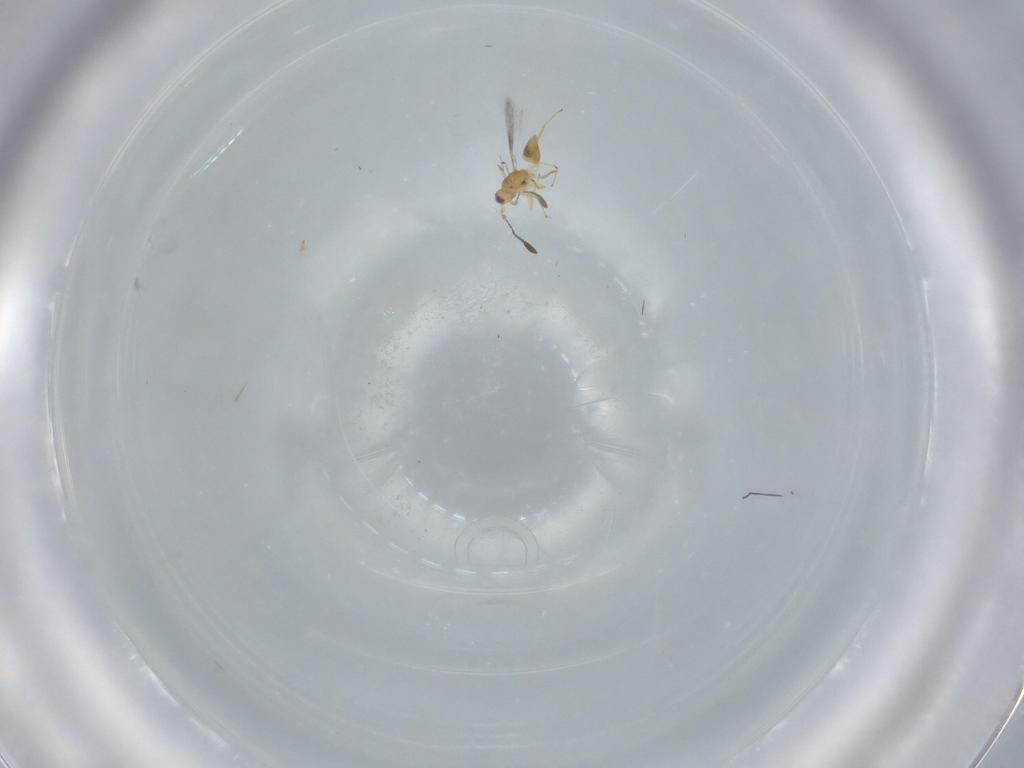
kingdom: Animalia
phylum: Arthropoda
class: Insecta
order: Hymenoptera
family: Mymaridae
